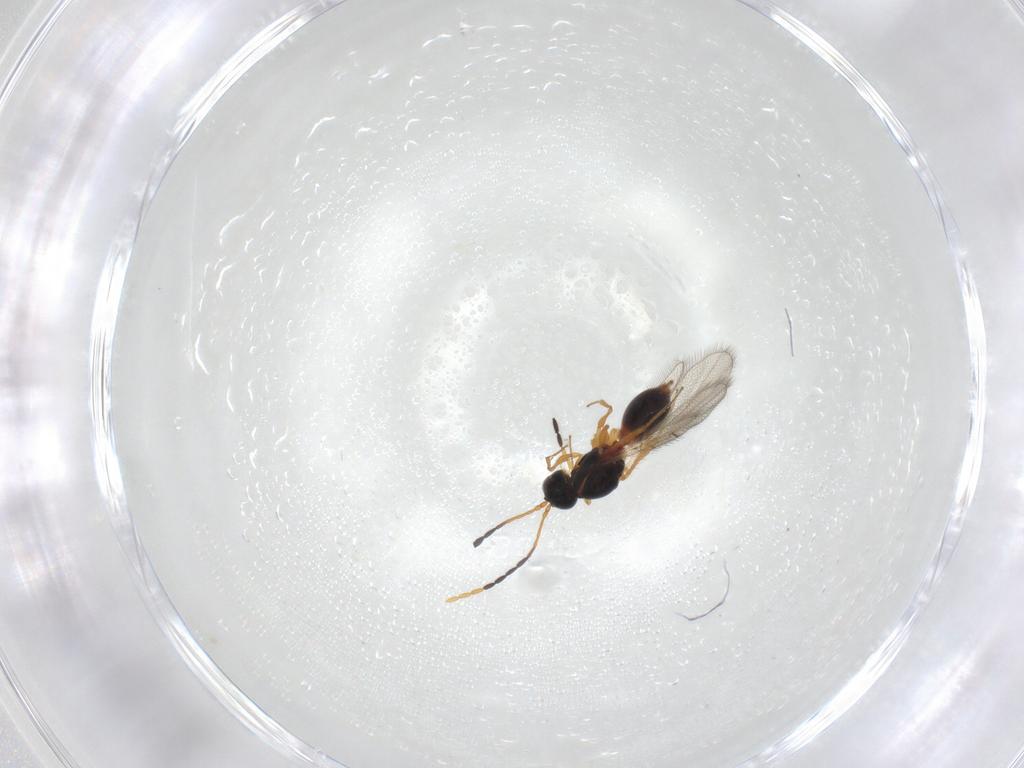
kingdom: Animalia
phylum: Arthropoda
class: Insecta
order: Hymenoptera
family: Figitidae
